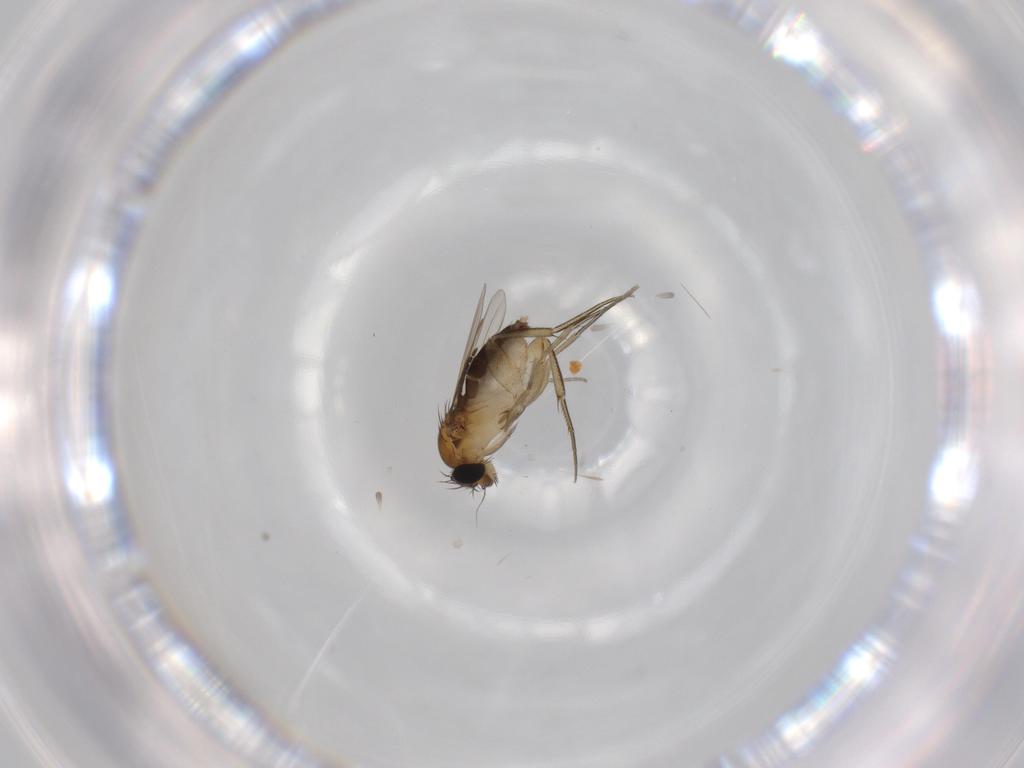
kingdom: Animalia
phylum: Arthropoda
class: Insecta
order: Diptera
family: Phoridae
